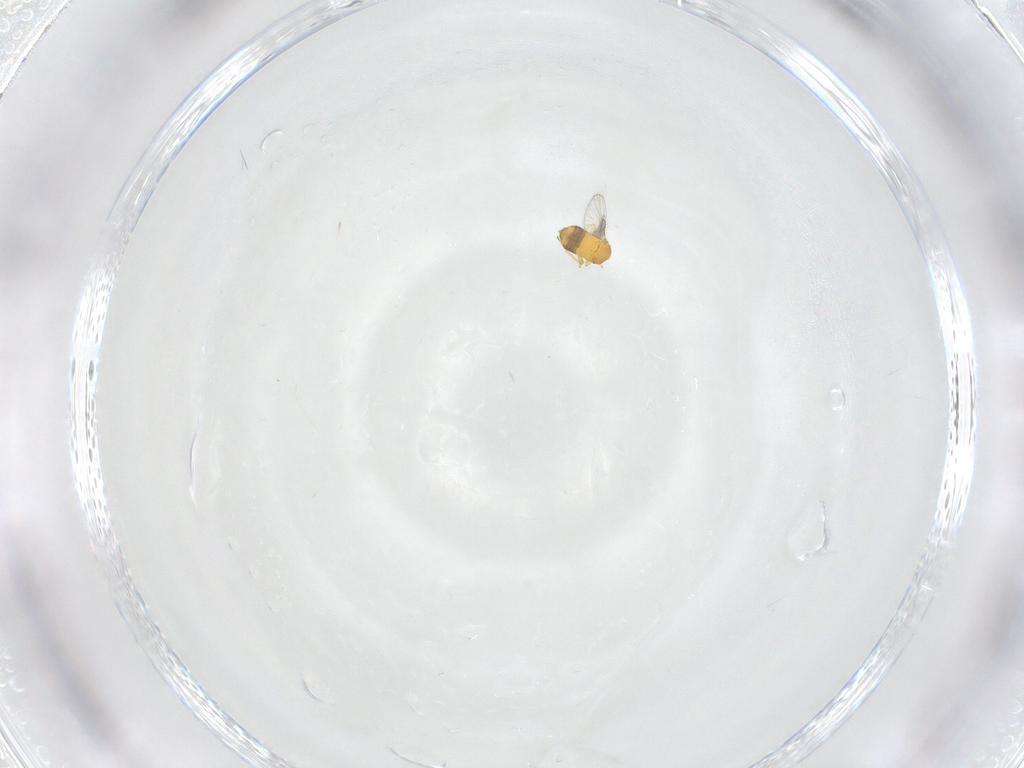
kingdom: Animalia
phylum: Arthropoda
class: Insecta
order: Hymenoptera
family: Trichogrammatidae
